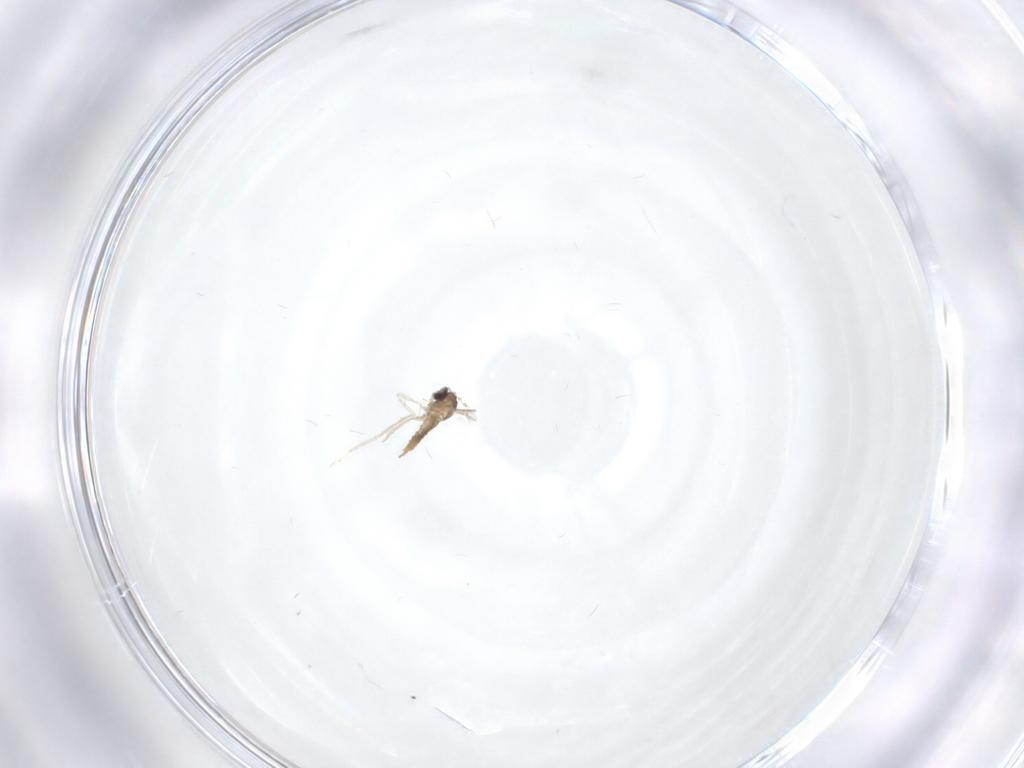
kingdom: Animalia
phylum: Arthropoda
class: Insecta
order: Diptera
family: Cecidomyiidae
